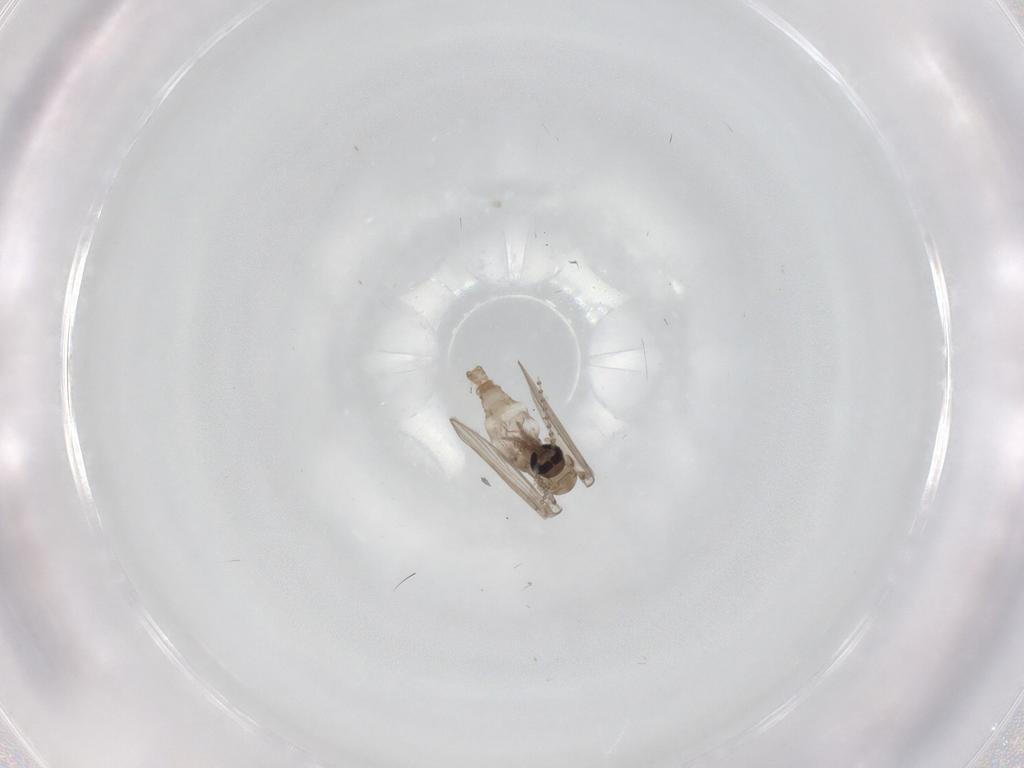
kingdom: Animalia
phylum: Arthropoda
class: Insecta
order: Diptera
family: Psychodidae
